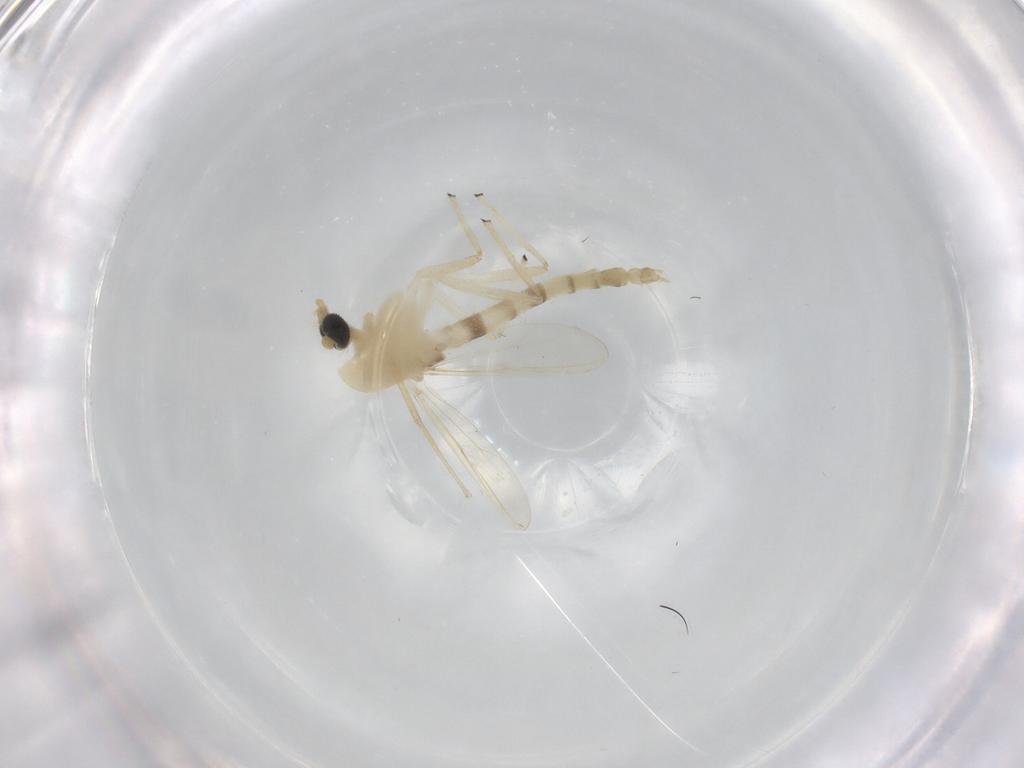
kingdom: Animalia
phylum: Arthropoda
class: Insecta
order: Diptera
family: Chironomidae
